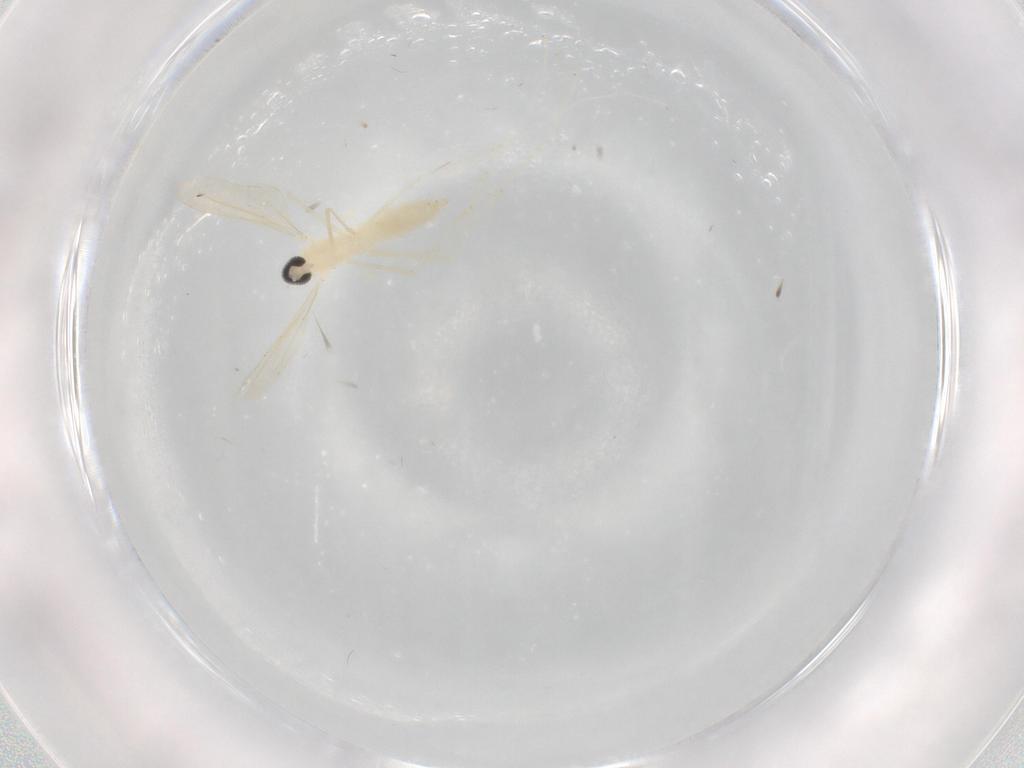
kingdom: Animalia
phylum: Arthropoda
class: Insecta
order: Diptera
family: Cecidomyiidae
